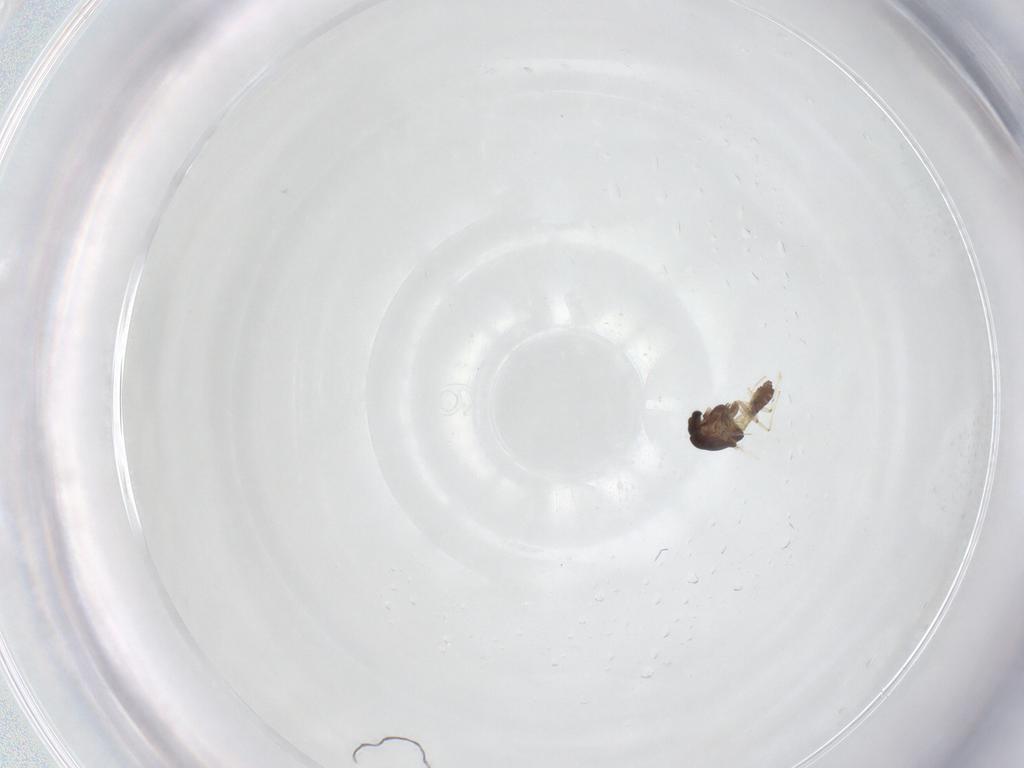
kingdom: Animalia
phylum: Arthropoda
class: Insecta
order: Diptera
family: Chironomidae
